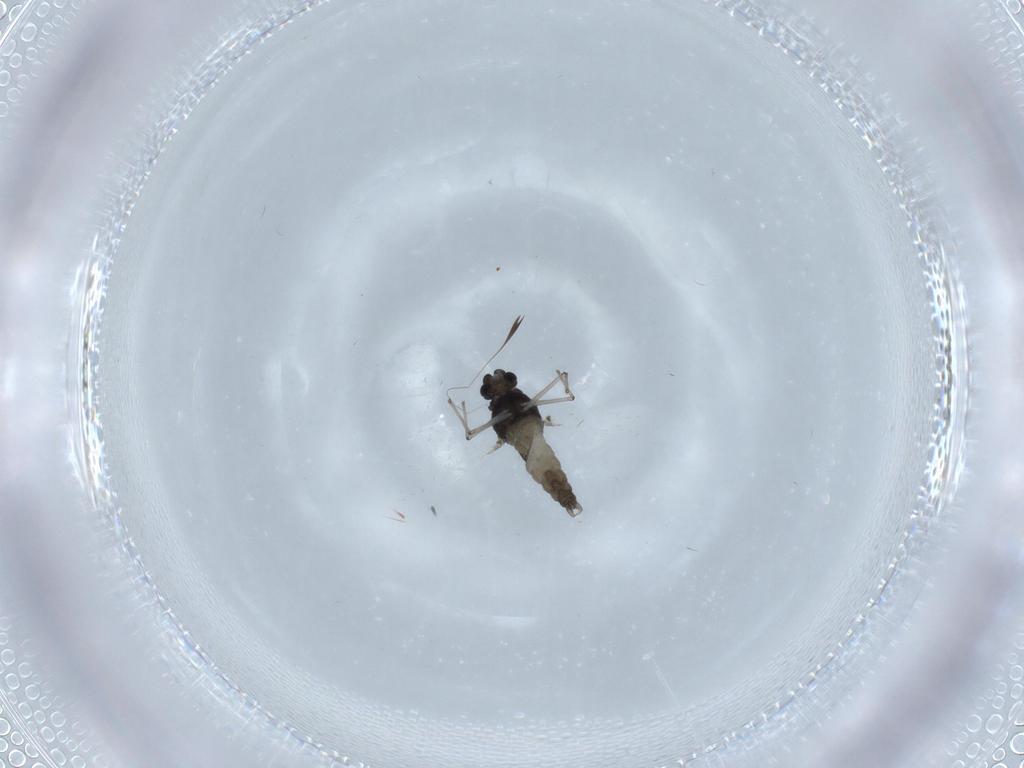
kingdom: Animalia
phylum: Arthropoda
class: Insecta
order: Diptera
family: Chironomidae
